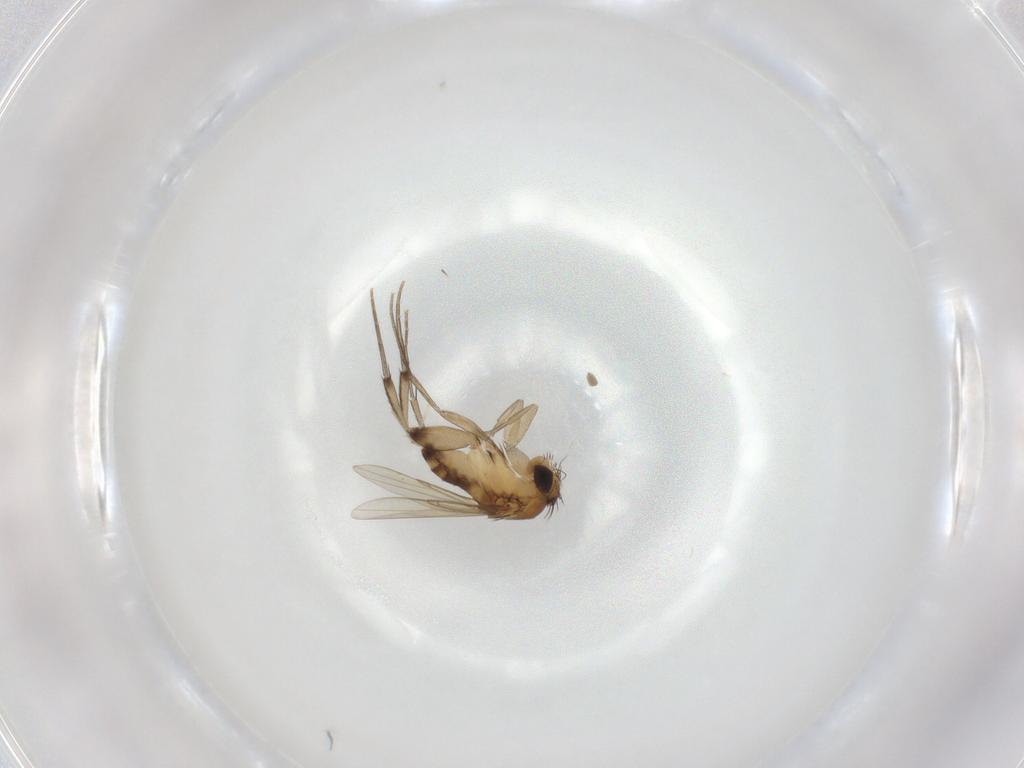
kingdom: Animalia
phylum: Arthropoda
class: Insecta
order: Diptera
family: Phoridae
